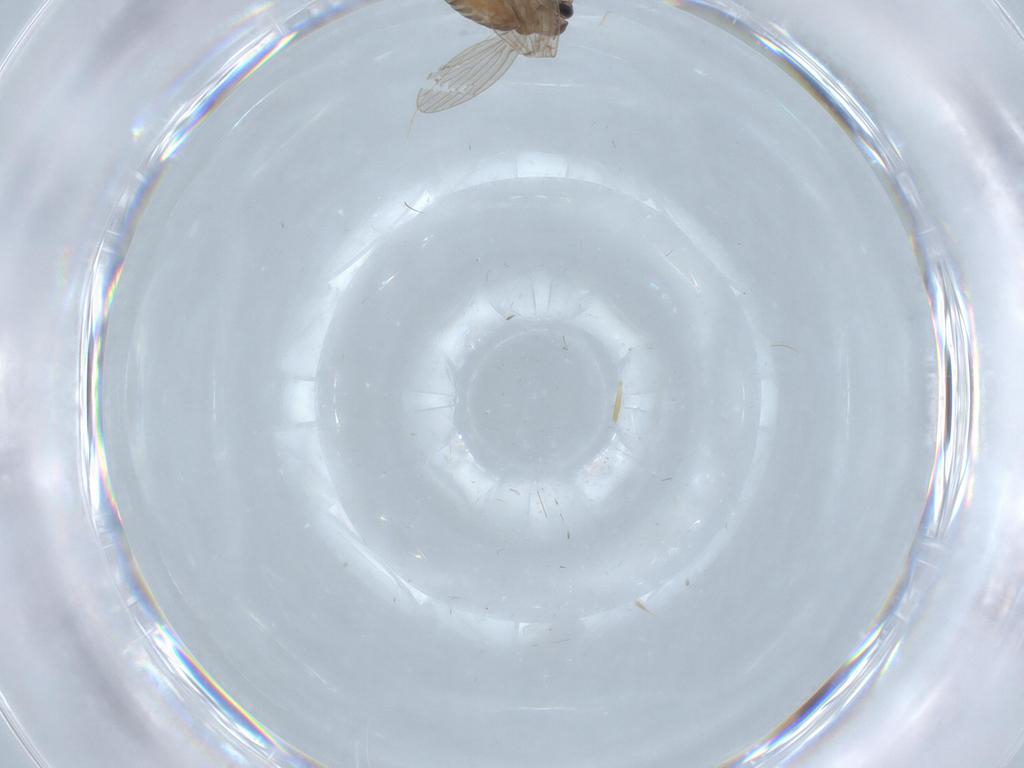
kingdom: Animalia
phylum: Arthropoda
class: Insecta
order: Diptera
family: Psychodidae
